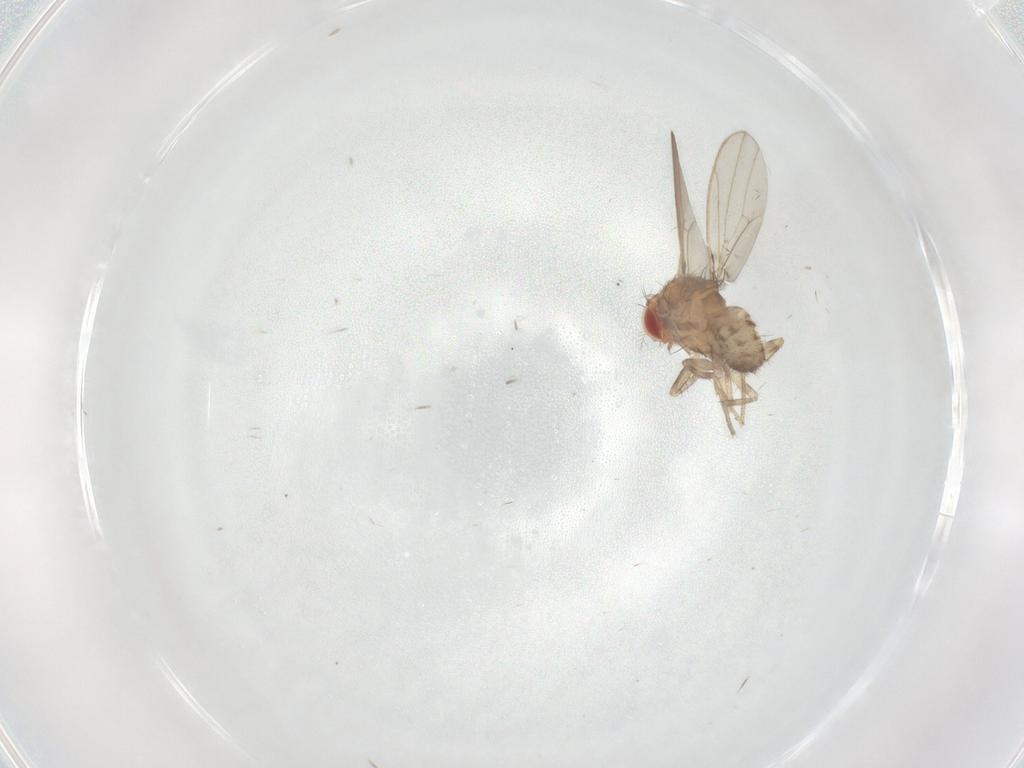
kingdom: Animalia
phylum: Arthropoda
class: Insecta
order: Diptera
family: Drosophilidae
